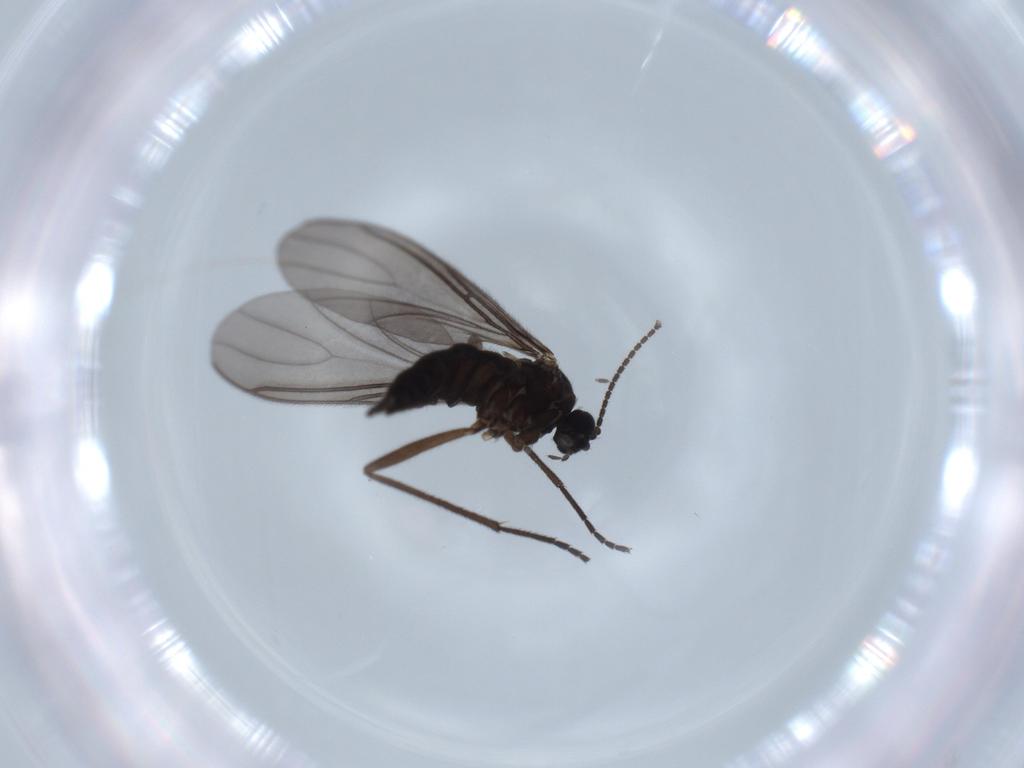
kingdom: Animalia
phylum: Arthropoda
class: Insecta
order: Diptera
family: Sciaridae
